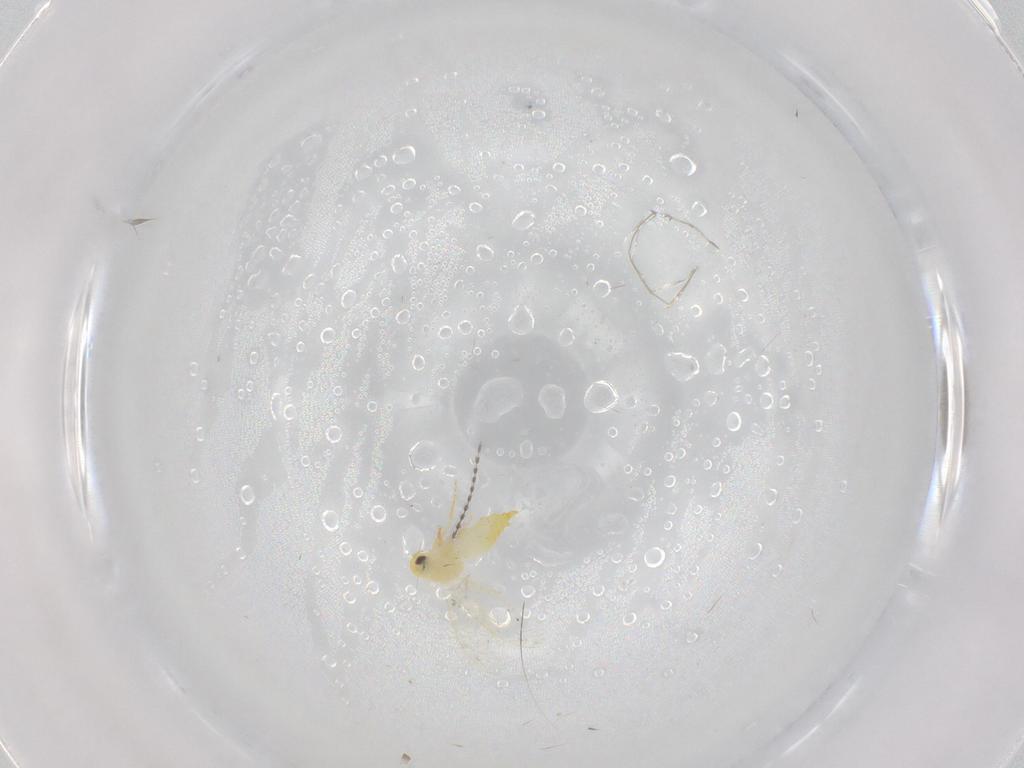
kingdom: Animalia
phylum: Arthropoda
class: Insecta
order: Hemiptera
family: Aleyrodidae
